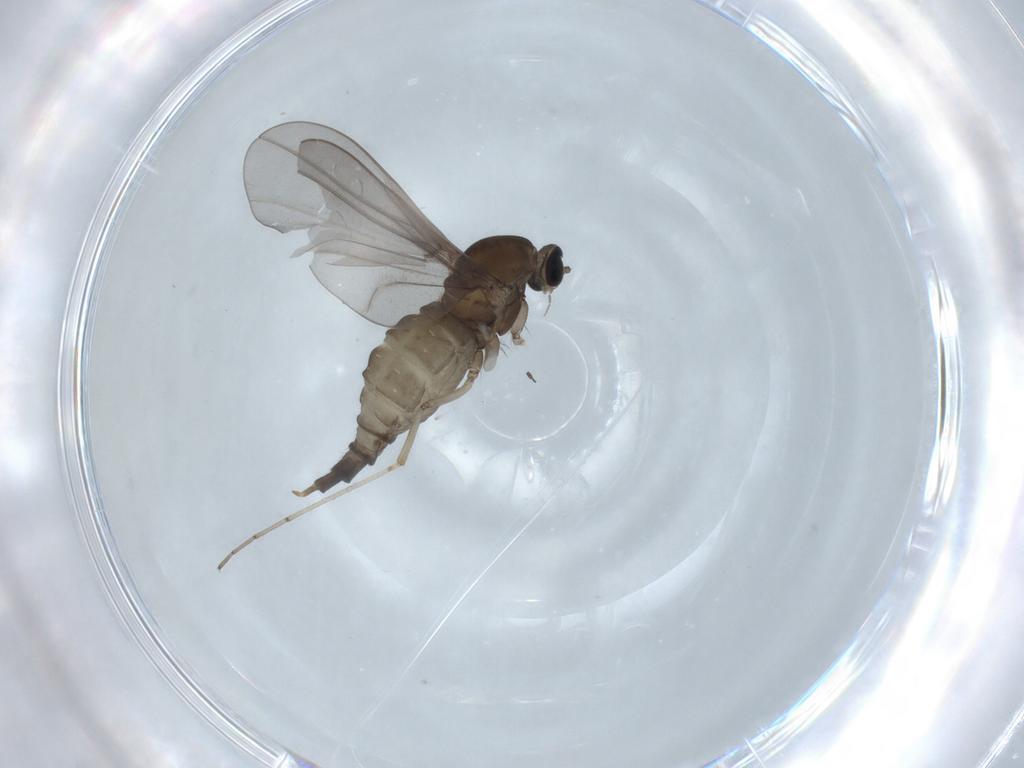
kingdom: Animalia
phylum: Arthropoda
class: Insecta
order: Diptera
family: Cecidomyiidae
